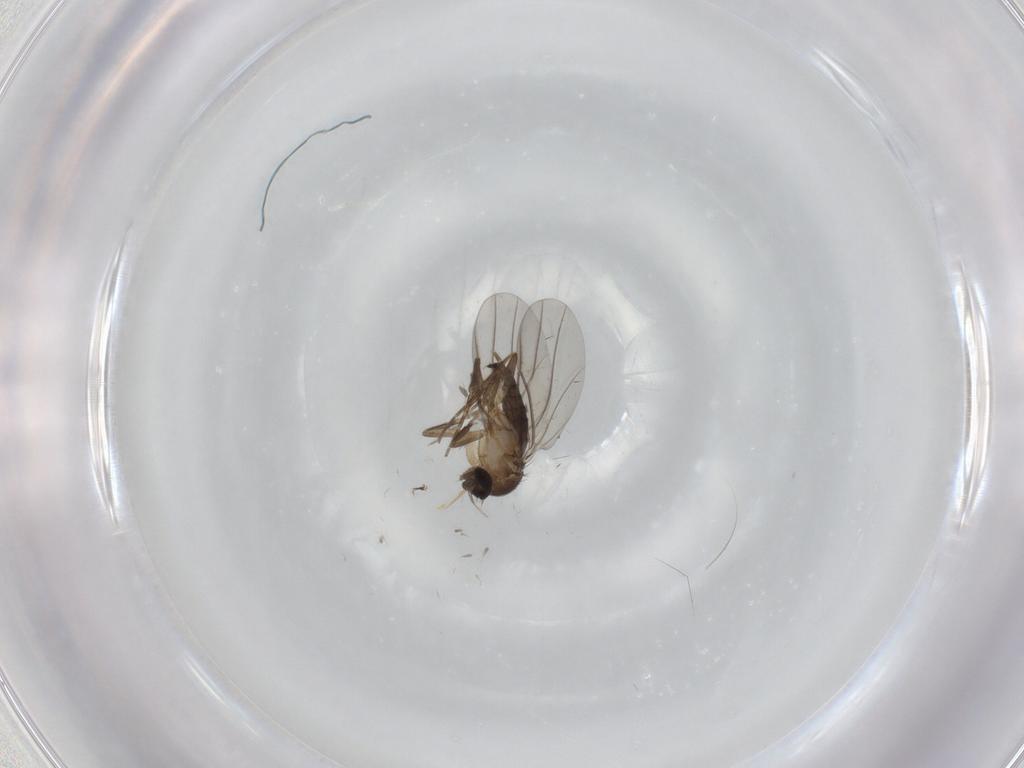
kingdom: Animalia
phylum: Arthropoda
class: Insecta
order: Diptera
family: Phoridae
